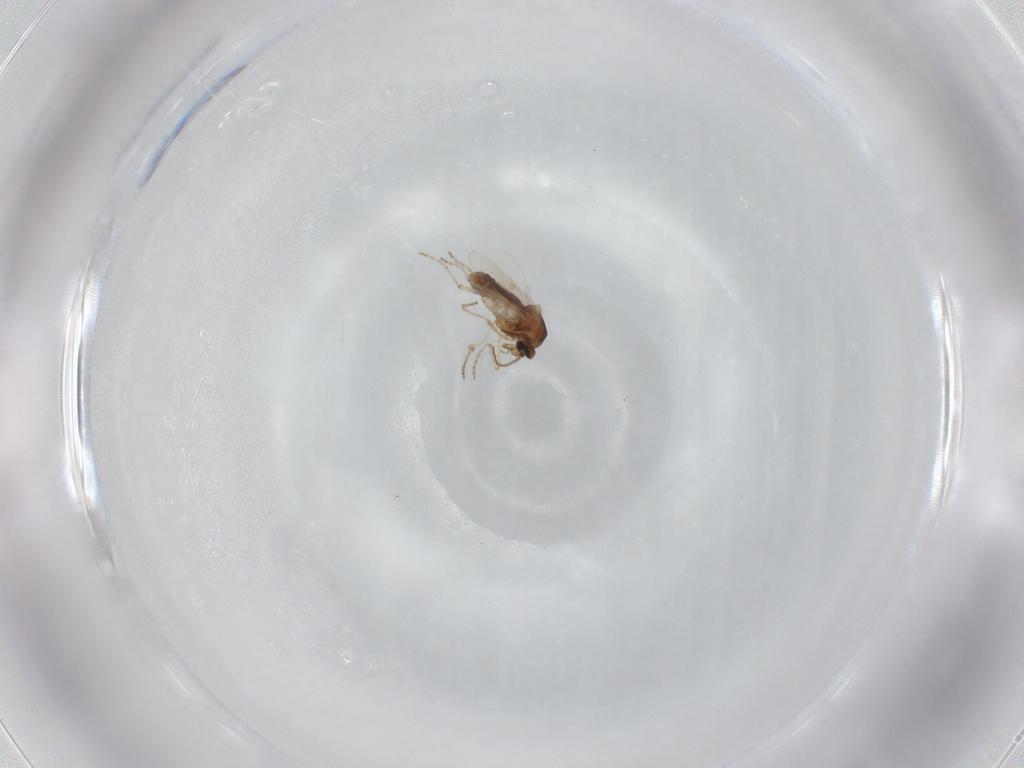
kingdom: Animalia
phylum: Arthropoda
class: Insecta
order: Diptera
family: Ceratopogonidae
